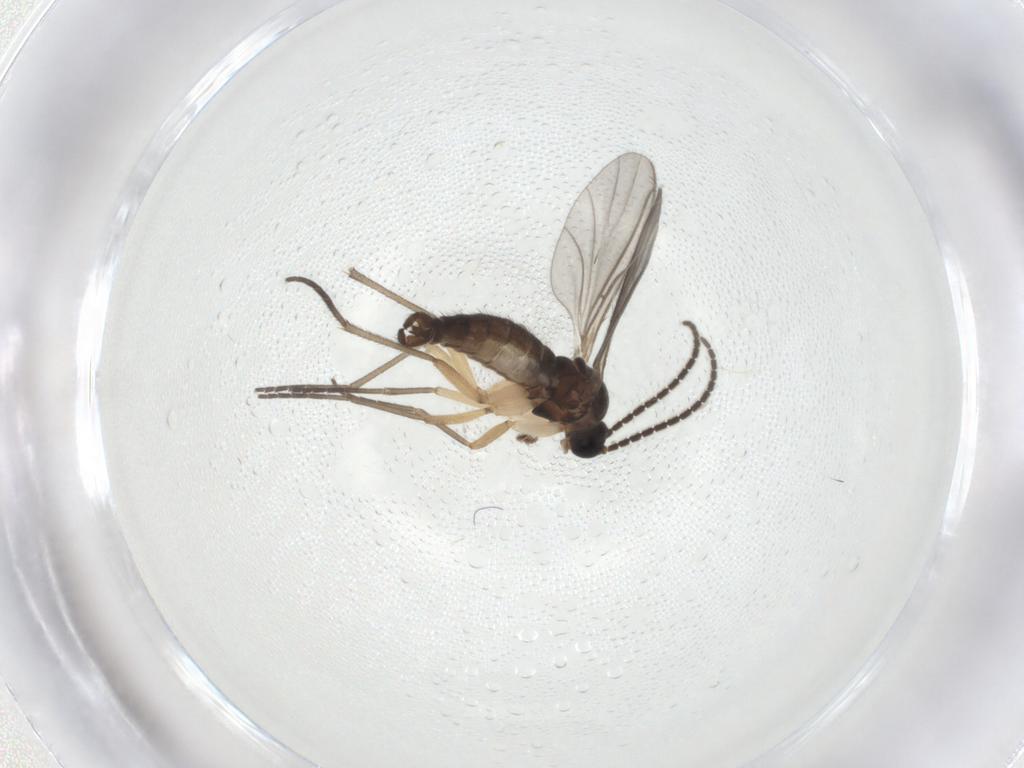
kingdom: Animalia
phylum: Arthropoda
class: Insecta
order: Diptera
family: Sciaridae
